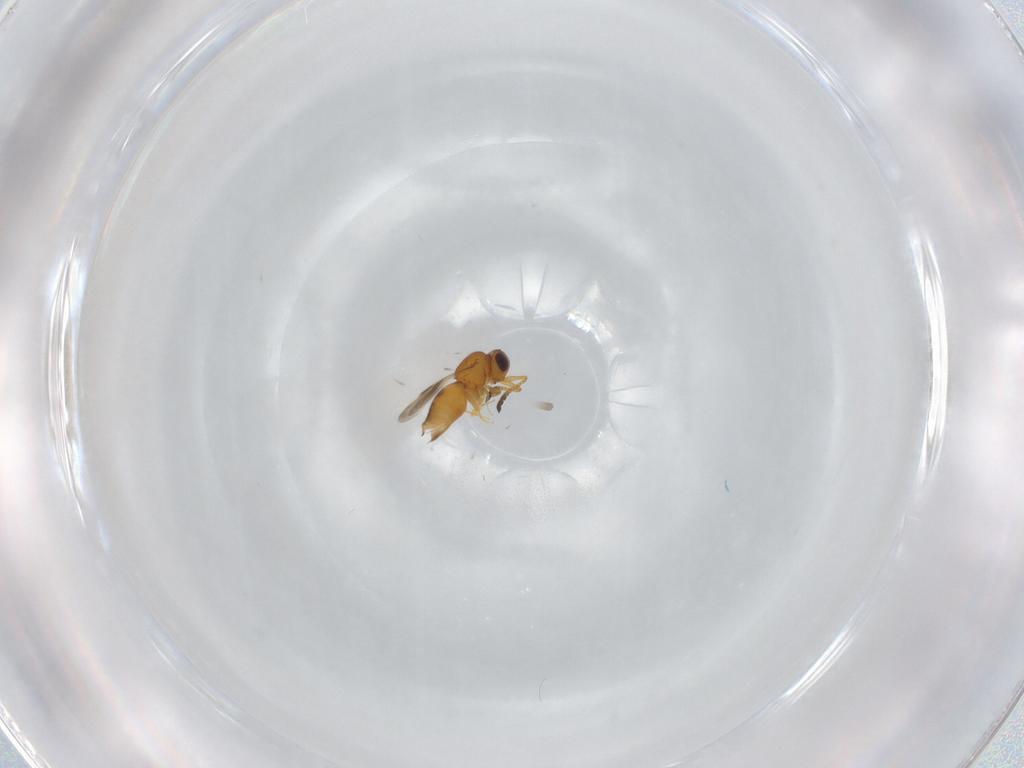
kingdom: Animalia
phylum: Arthropoda
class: Insecta
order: Hymenoptera
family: Ceraphronidae
